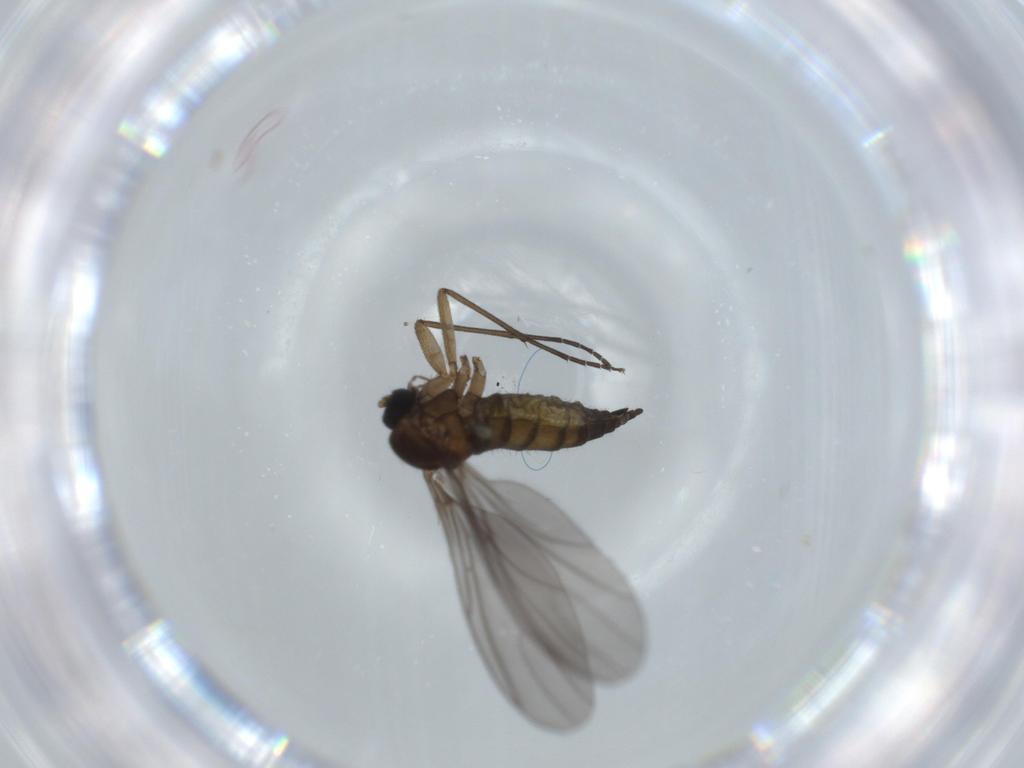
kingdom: Animalia
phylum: Arthropoda
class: Insecta
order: Diptera
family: Sciaridae
